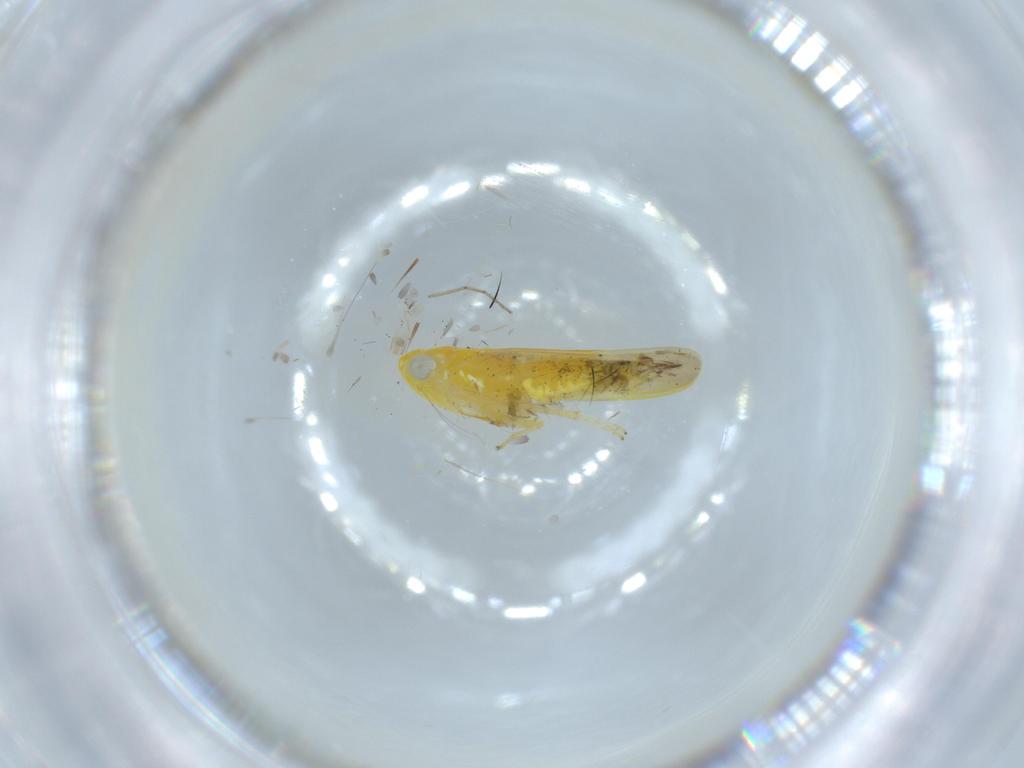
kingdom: Animalia
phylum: Arthropoda
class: Insecta
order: Hemiptera
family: Cicadellidae
